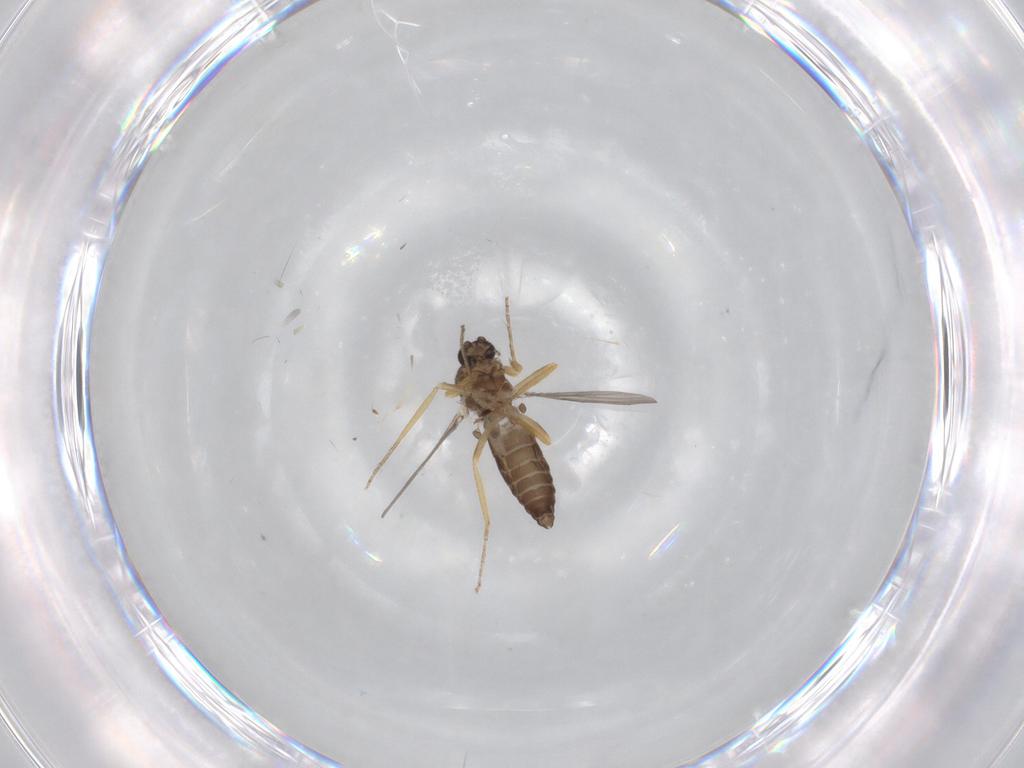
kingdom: Animalia
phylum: Arthropoda
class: Insecta
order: Diptera
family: Ceratopogonidae
